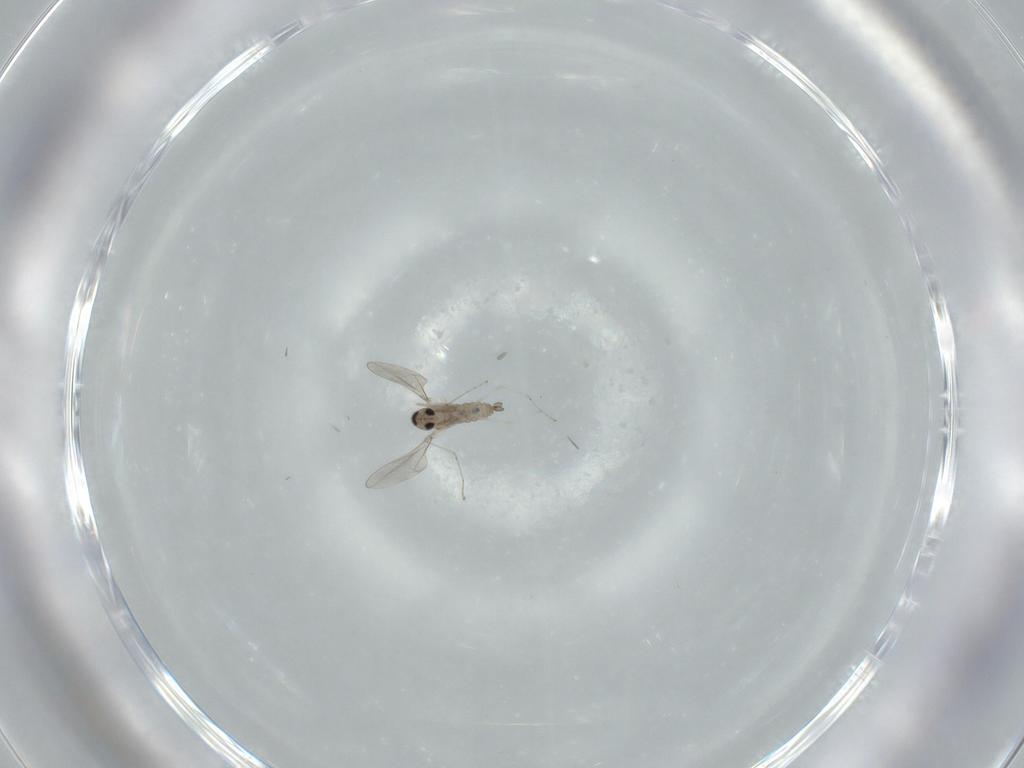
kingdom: Animalia
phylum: Arthropoda
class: Insecta
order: Diptera
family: Cecidomyiidae
